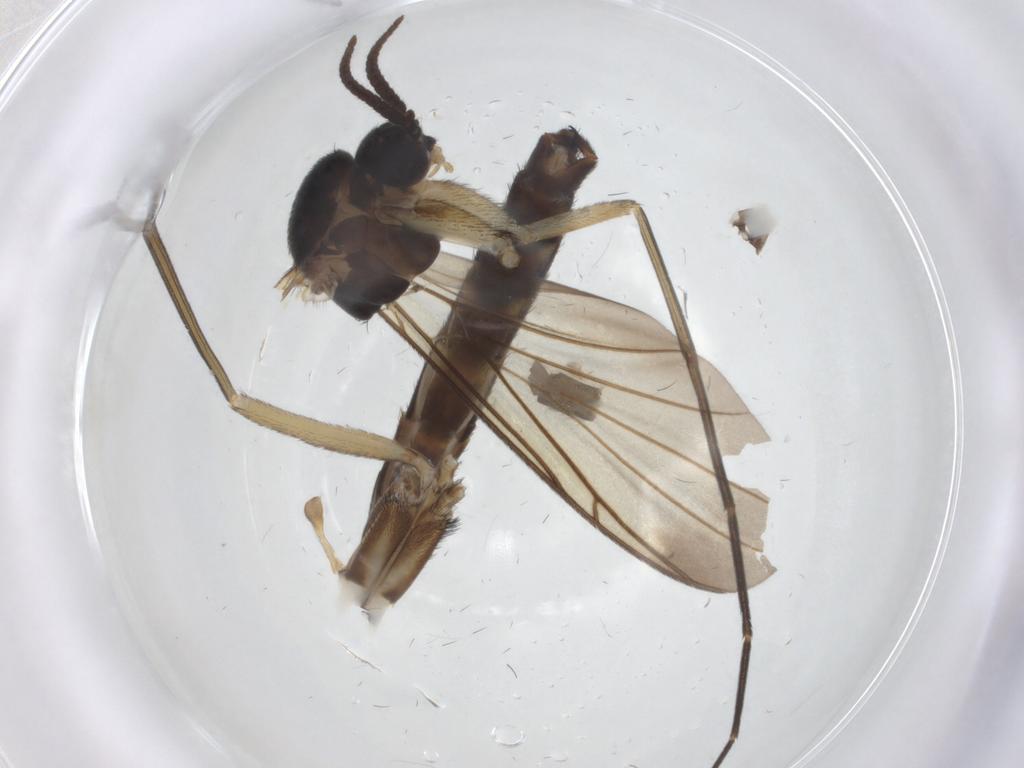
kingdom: Animalia
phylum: Arthropoda
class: Insecta
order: Diptera
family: Keroplatidae
